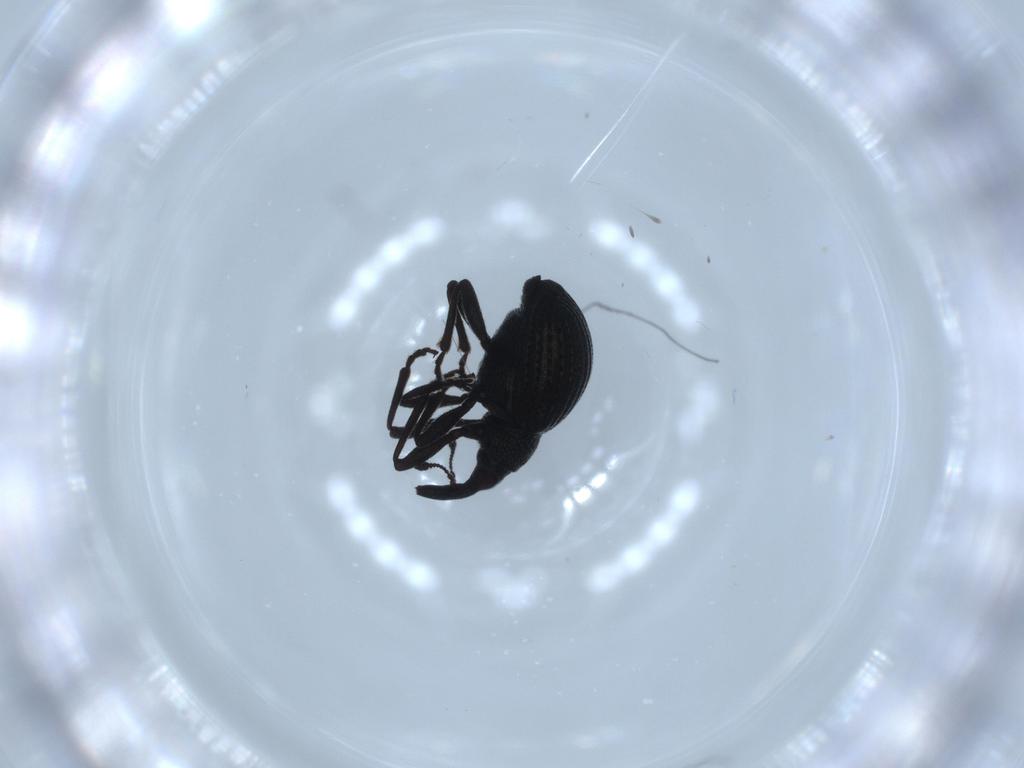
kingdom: Animalia
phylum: Arthropoda
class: Insecta
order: Coleoptera
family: Brentidae
